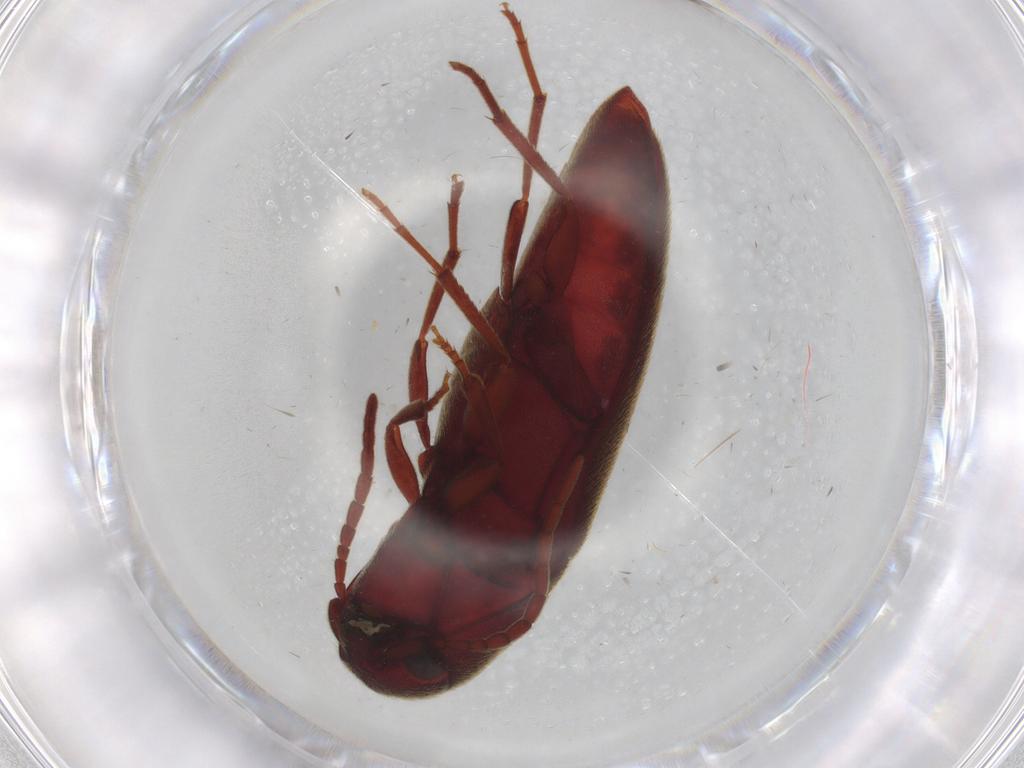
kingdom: Animalia
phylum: Arthropoda
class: Insecta
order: Coleoptera
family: Eucnemidae
